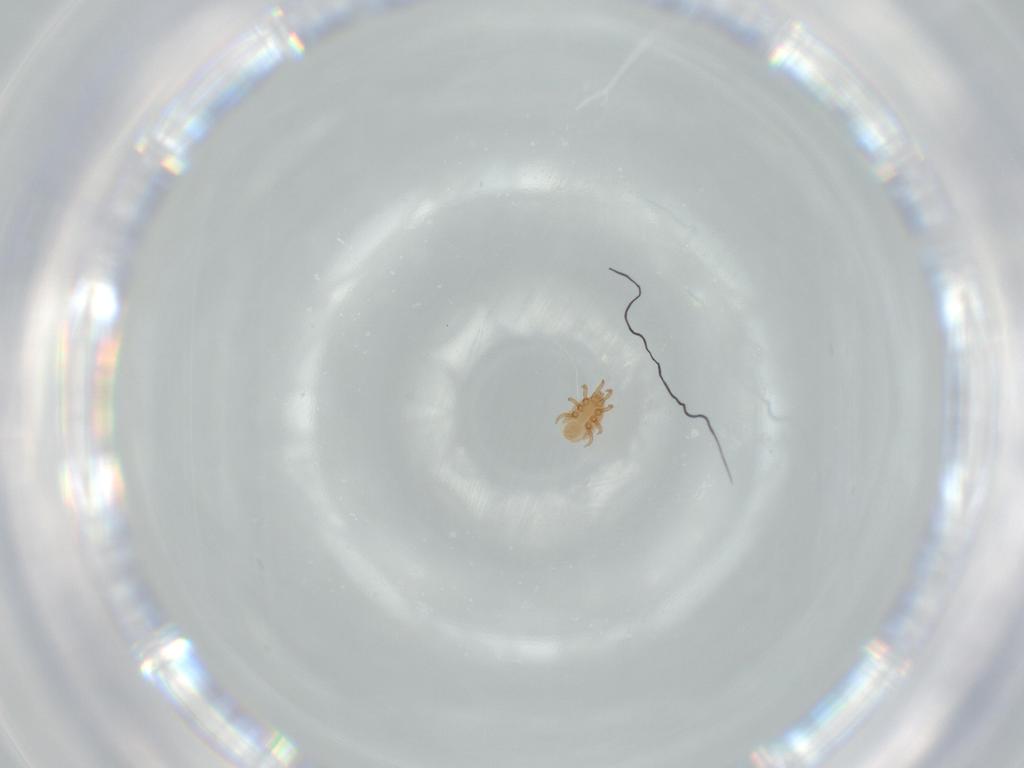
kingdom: Animalia
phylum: Arthropoda
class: Arachnida
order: Mesostigmata
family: Dinychidae
